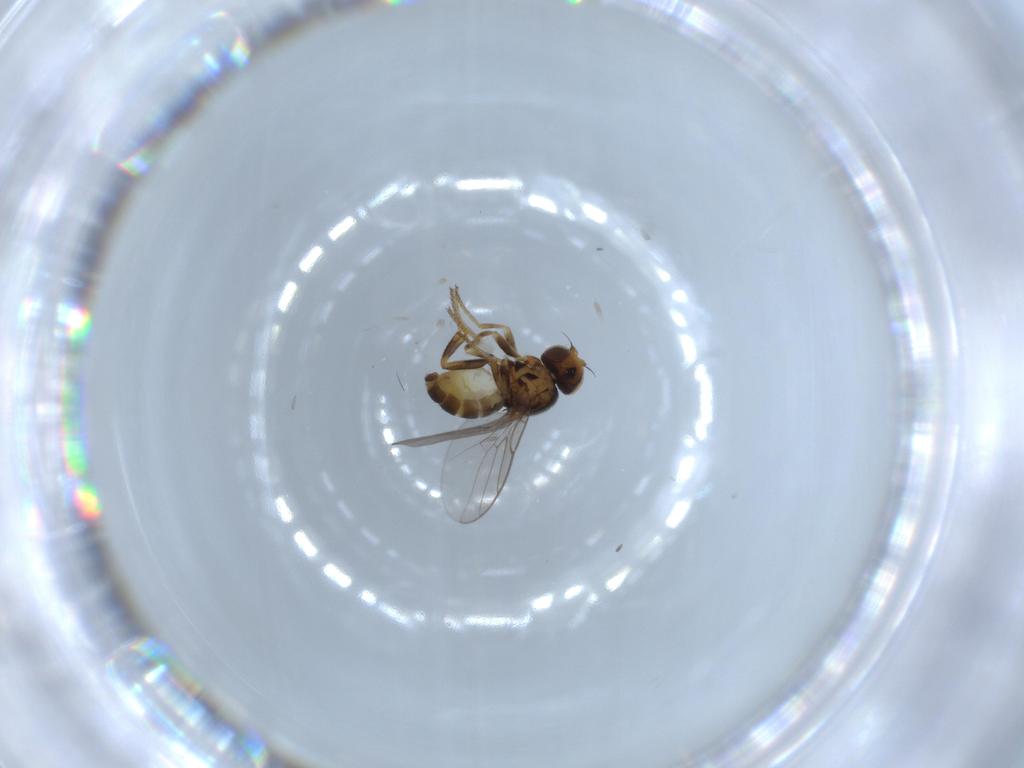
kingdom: Animalia
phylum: Arthropoda
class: Insecta
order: Diptera
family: Chloropidae
